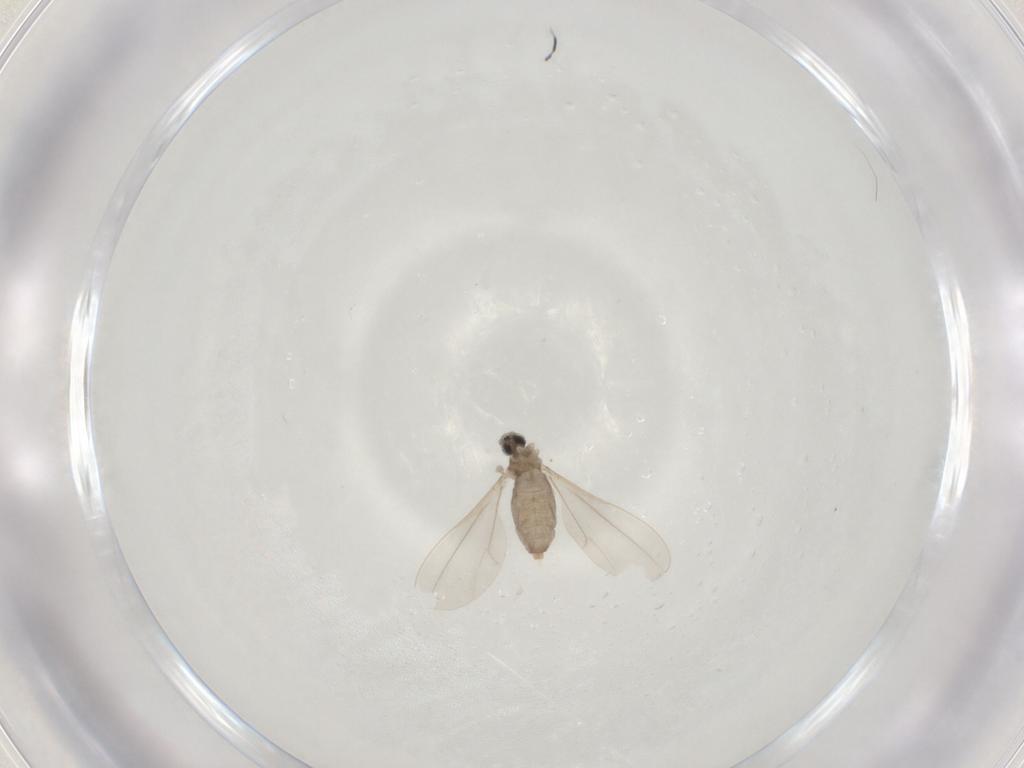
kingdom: Animalia
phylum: Arthropoda
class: Insecta
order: Diptera
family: Cecidomyiidae
